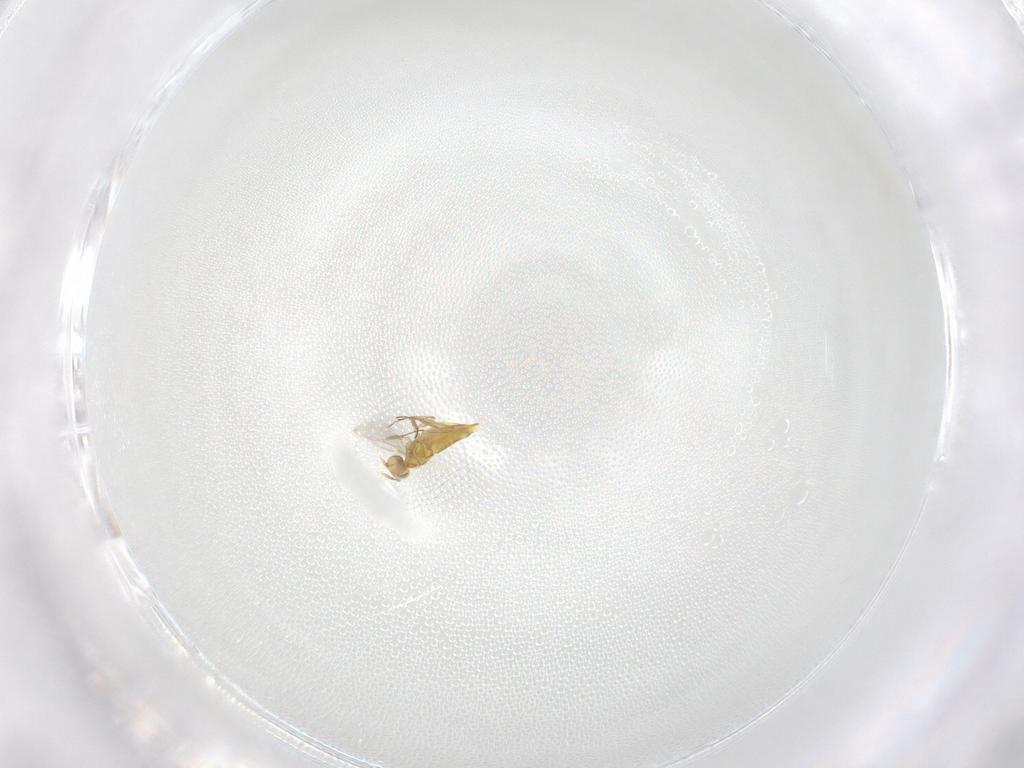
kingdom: Animalia
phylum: Arthropoda
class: Insecta
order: Hymenoptera
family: Aphelinidae
